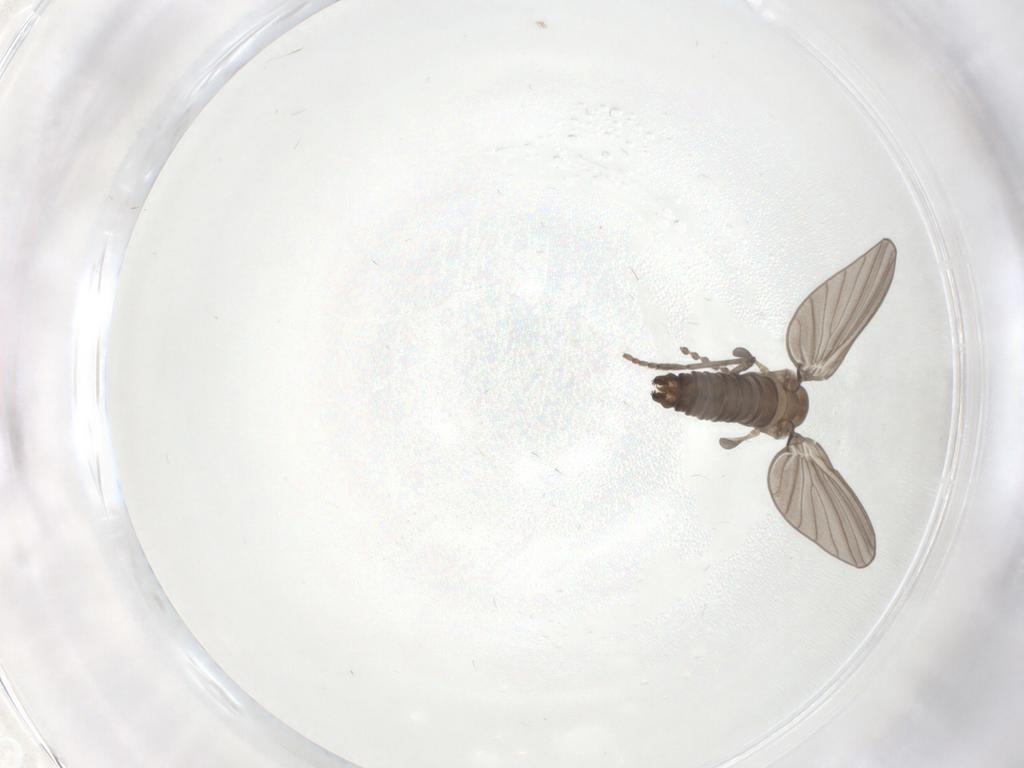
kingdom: Animalia
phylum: Arthropoda
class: Insecta
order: Diptera
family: Psychodidae
